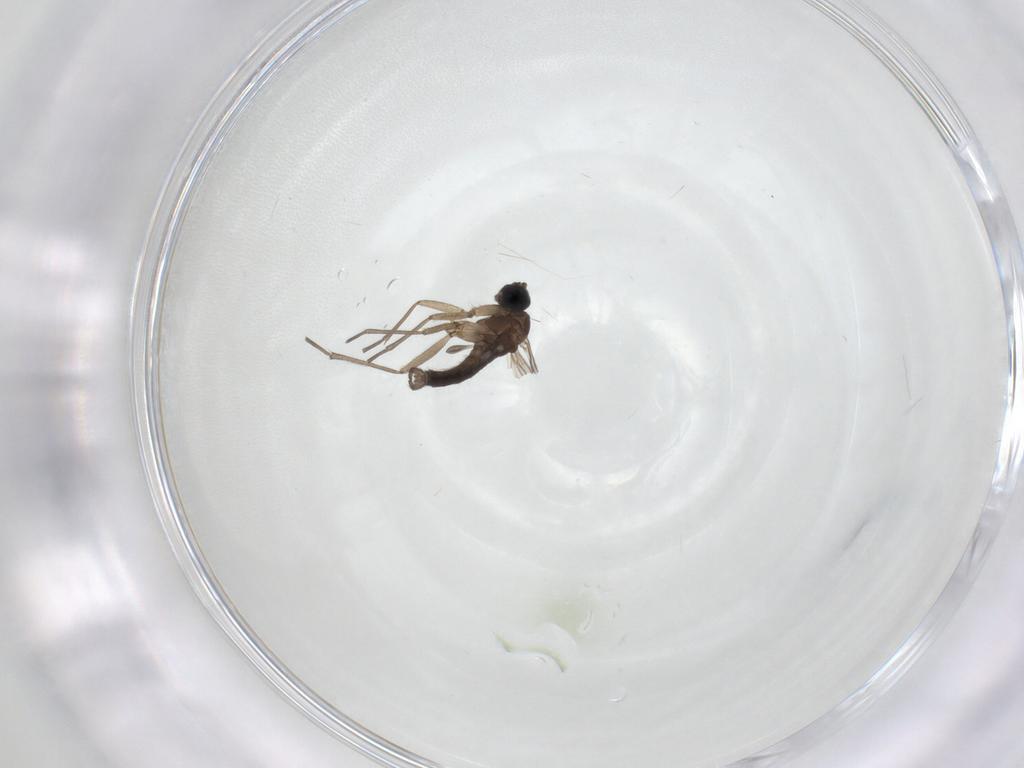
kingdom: Animalia
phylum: Arthropoda
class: Insecta
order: Diptera
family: Sciaridae
